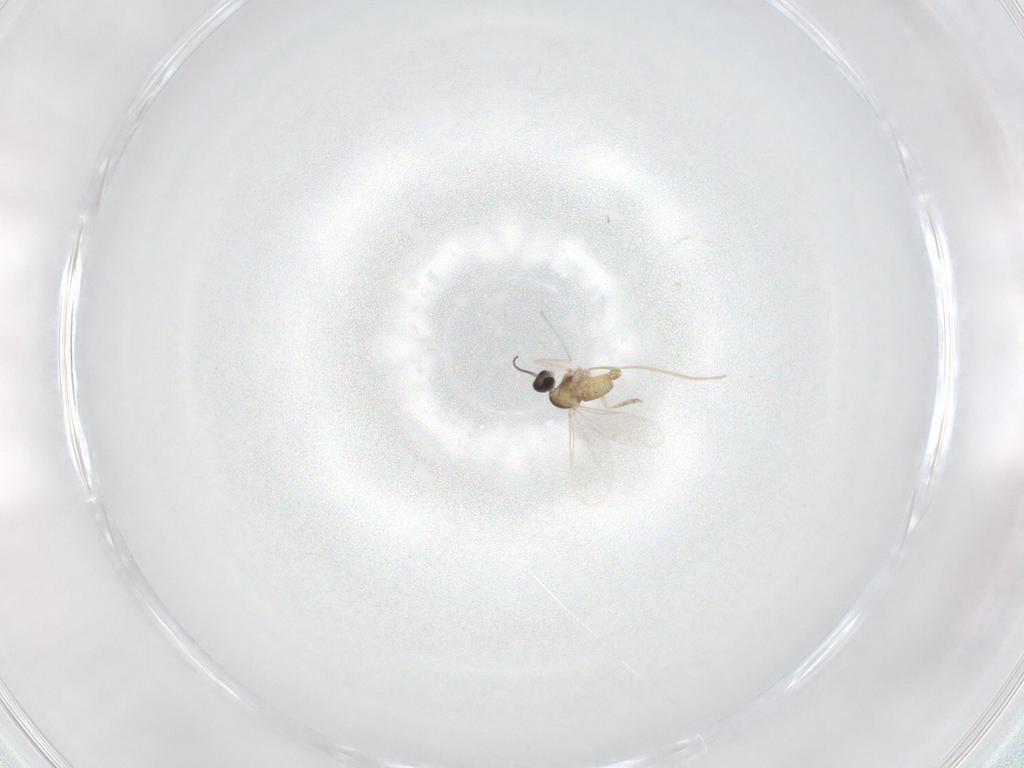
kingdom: Animalia
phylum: Arthropoda
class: Insecta
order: Diptera
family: Cecidomyiidae
